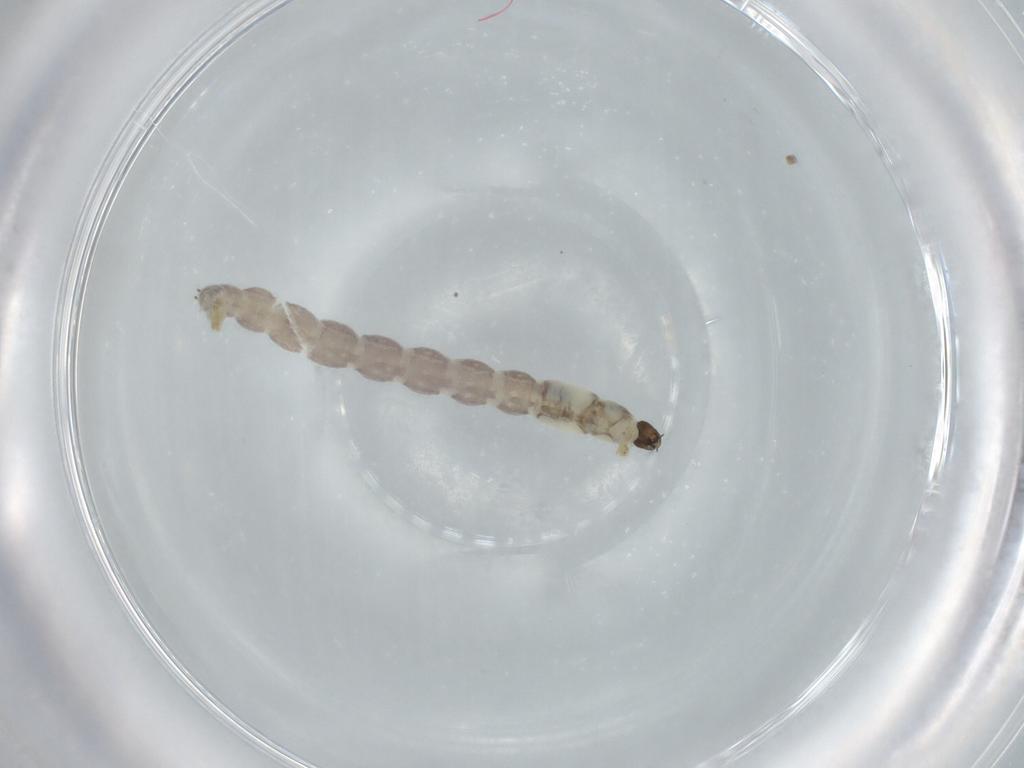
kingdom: Animalia
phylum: Arthropoda
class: Insecta
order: Diptera
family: Chironomidae
